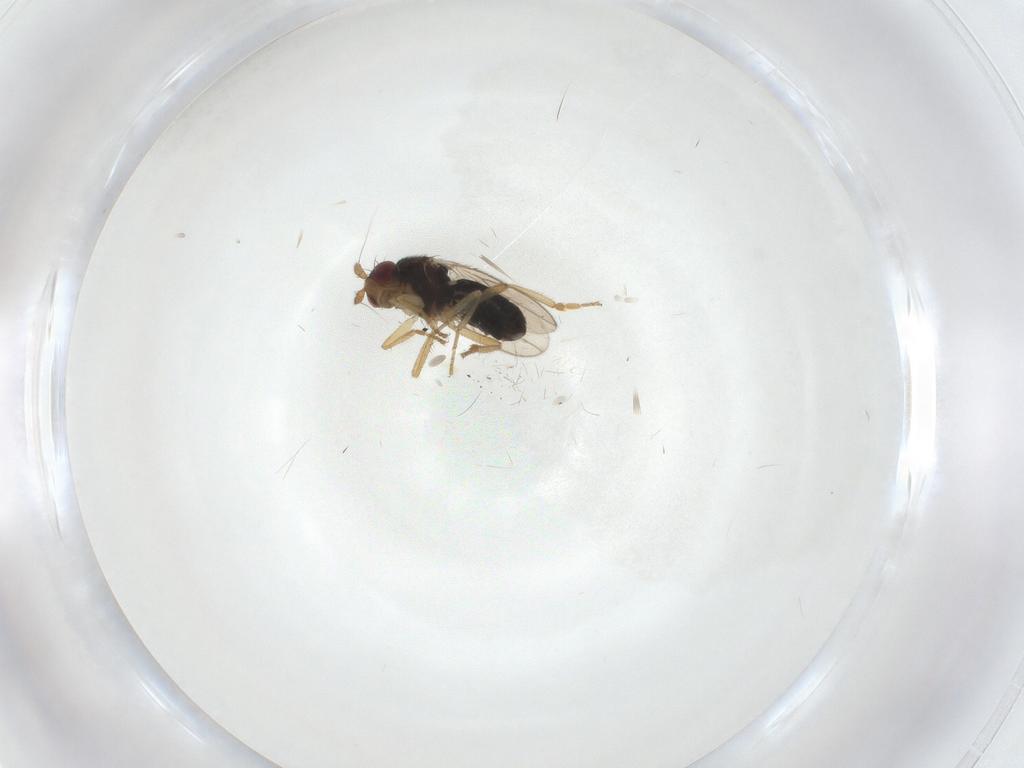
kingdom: Animalia
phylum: Arthropoda
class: Insecta
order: Diptera
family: Sphaeroceridae
